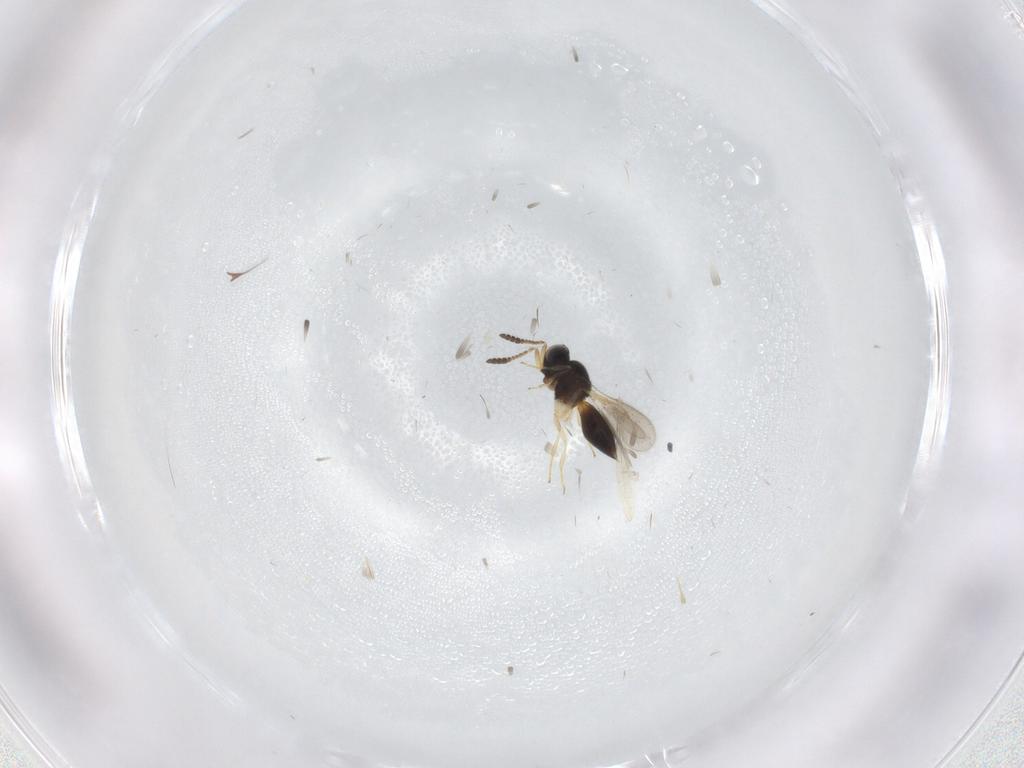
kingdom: Animalia
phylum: Arthropoda
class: Insecta
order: Hymenoptera
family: Scelionidae
